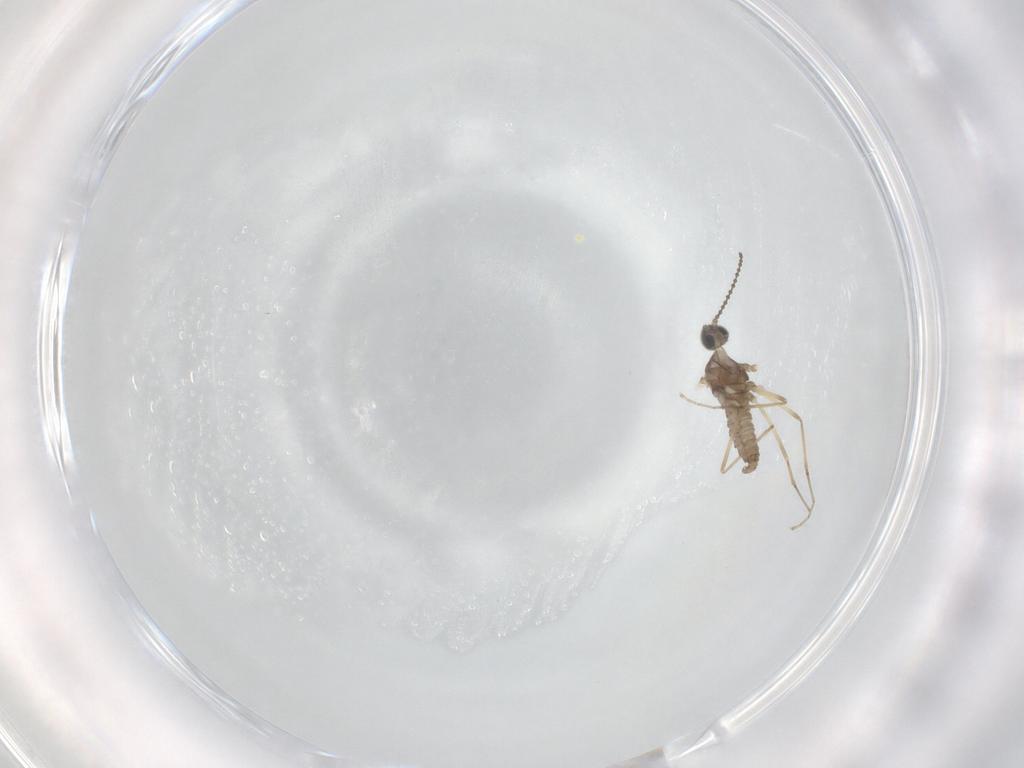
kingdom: Animalia
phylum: Arthropoda
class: Insecta
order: Diptera
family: Cecidomyiidae
